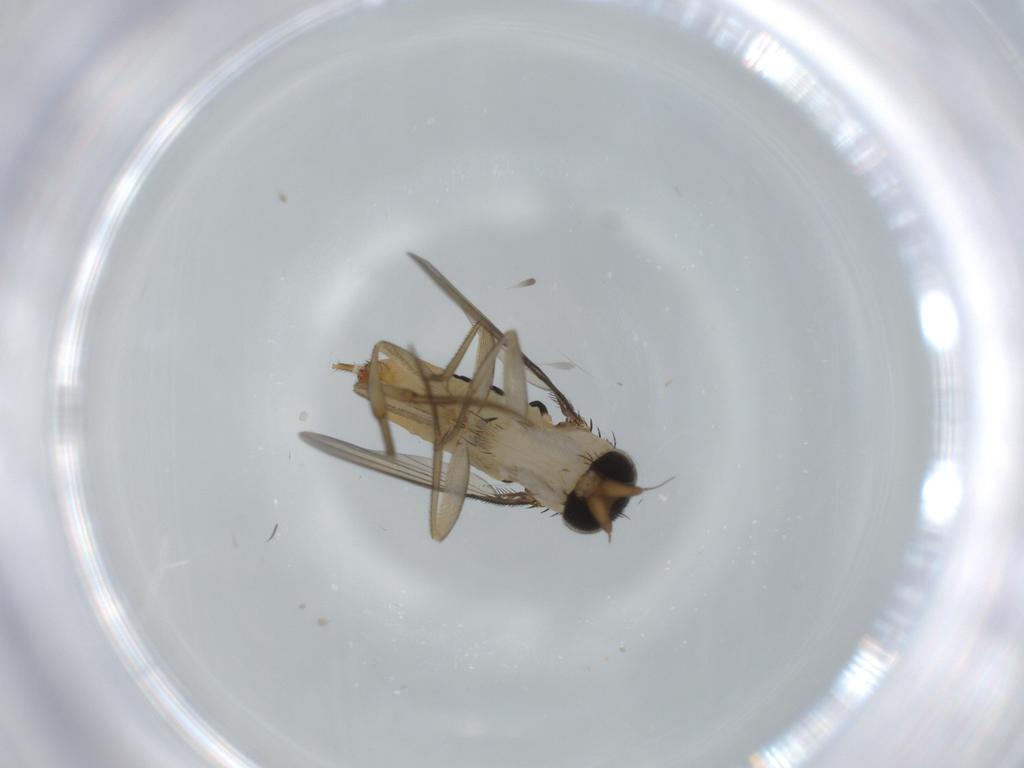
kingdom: Animalia
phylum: Arthropoda
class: Insecta
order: Diptera
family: Phoridae
